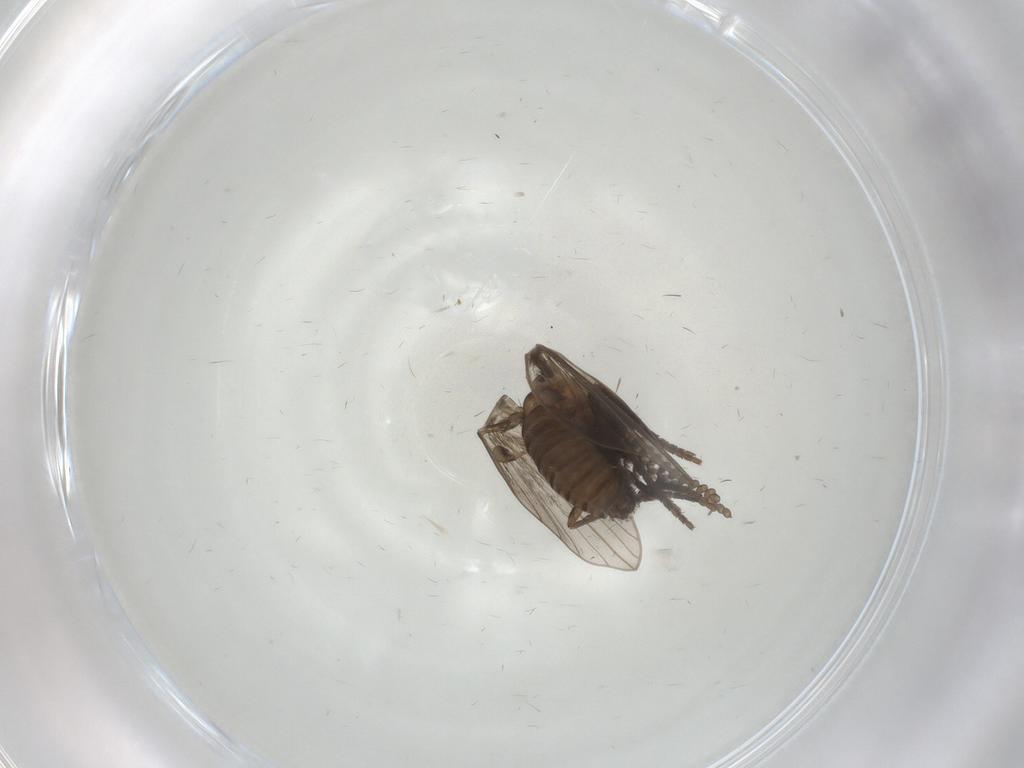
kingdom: Animalia
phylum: Arthropoda
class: Insecta
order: Diptera
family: Psychodidae
